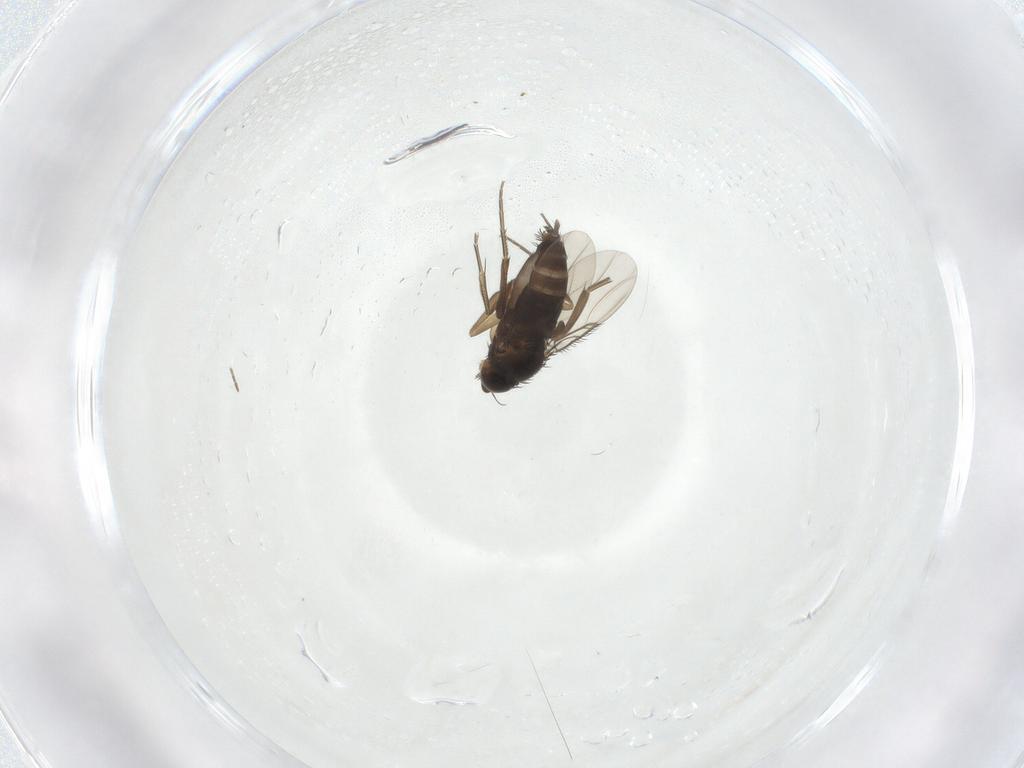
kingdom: Animalia
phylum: Arthropoda
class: Insecta
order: Diptera
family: Phoridae
